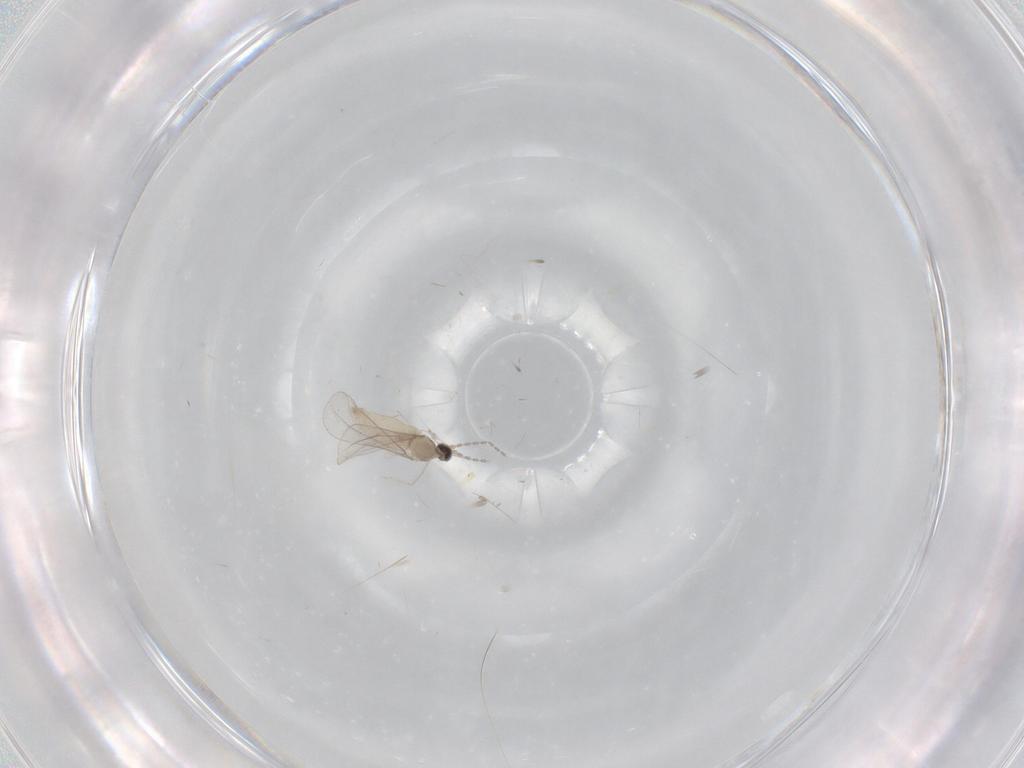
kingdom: Animalia
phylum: Arthropoda
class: Insecta
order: Diptera
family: Cecidomyiidae
